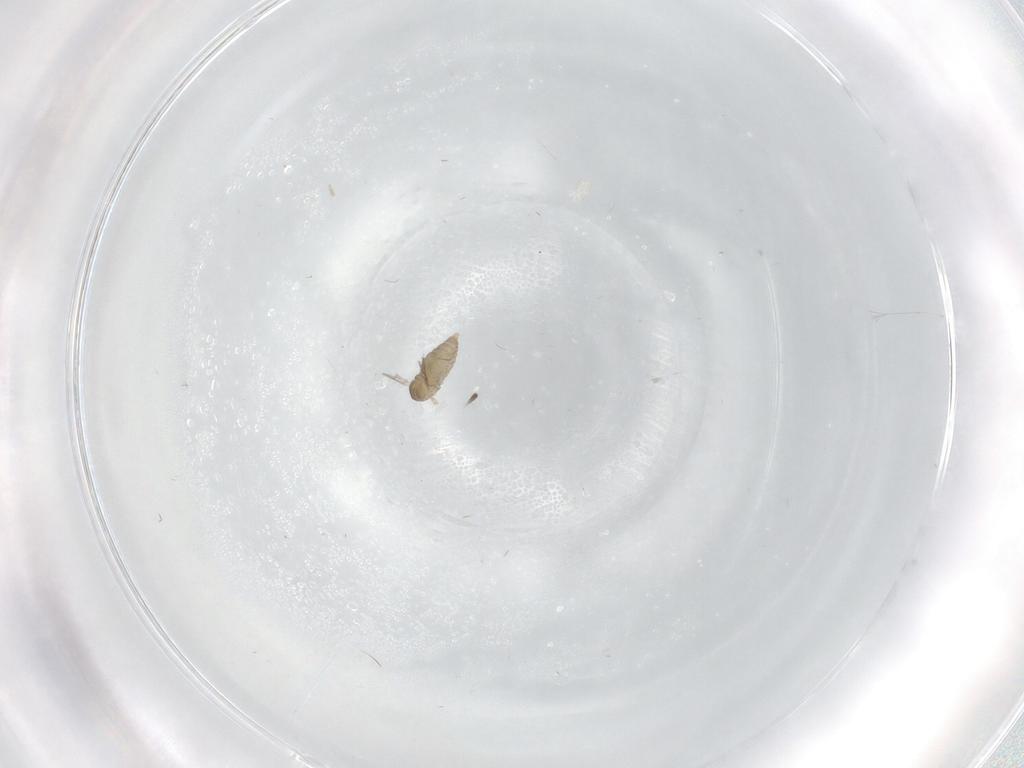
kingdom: Animalia
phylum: Arthropoda
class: Insecta
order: Diptera
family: Cecidomyiidae
